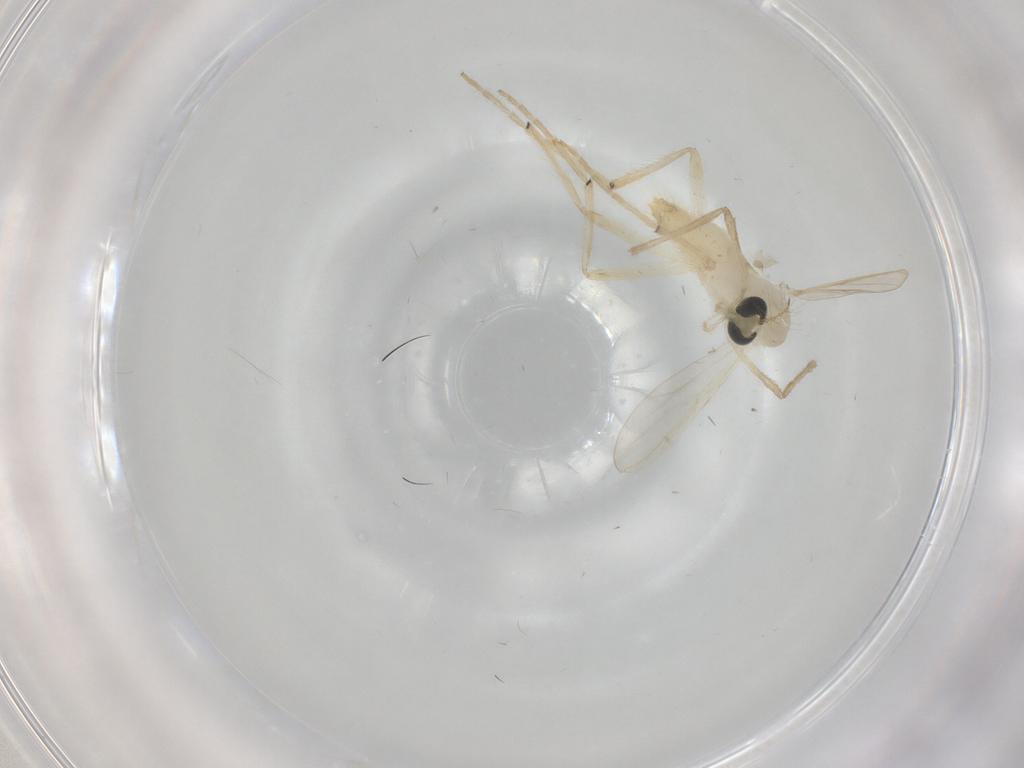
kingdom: Animalia
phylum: Arthropoda
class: Insecta
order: Diptera
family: Chironomidae
